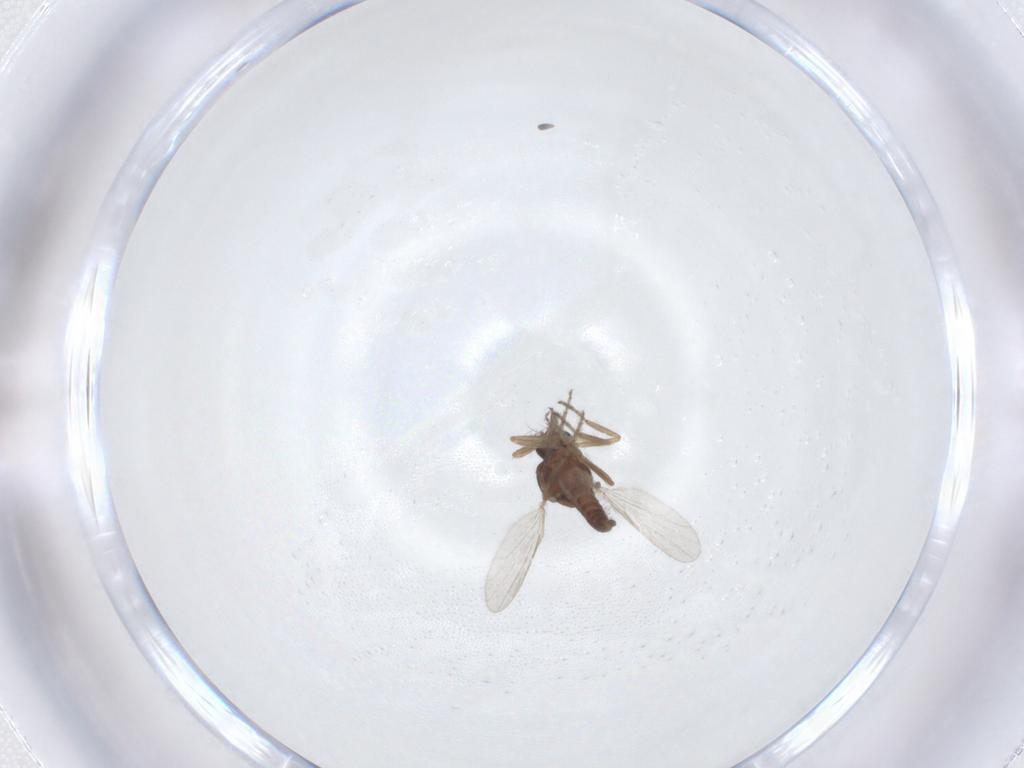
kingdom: Animalia
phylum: Arthropoda
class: Insecta
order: Diptera
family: Ceratopogonidae
